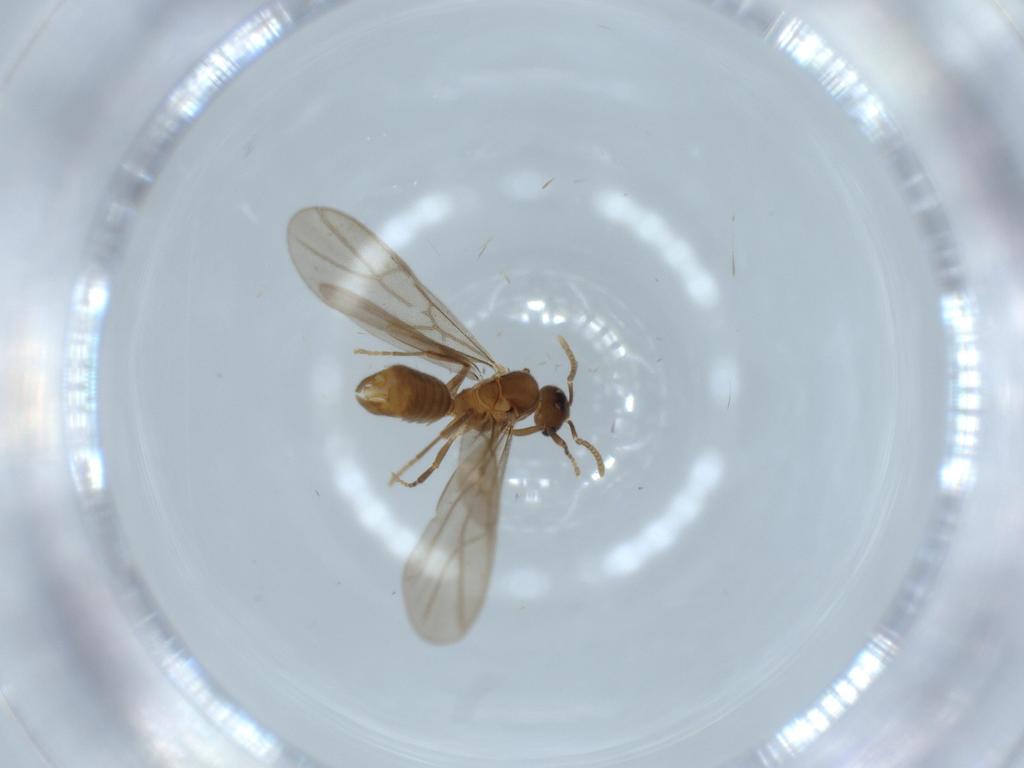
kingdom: Animalia
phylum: Arthropoda
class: Insecta
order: Hymenoptera
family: Formicidae
